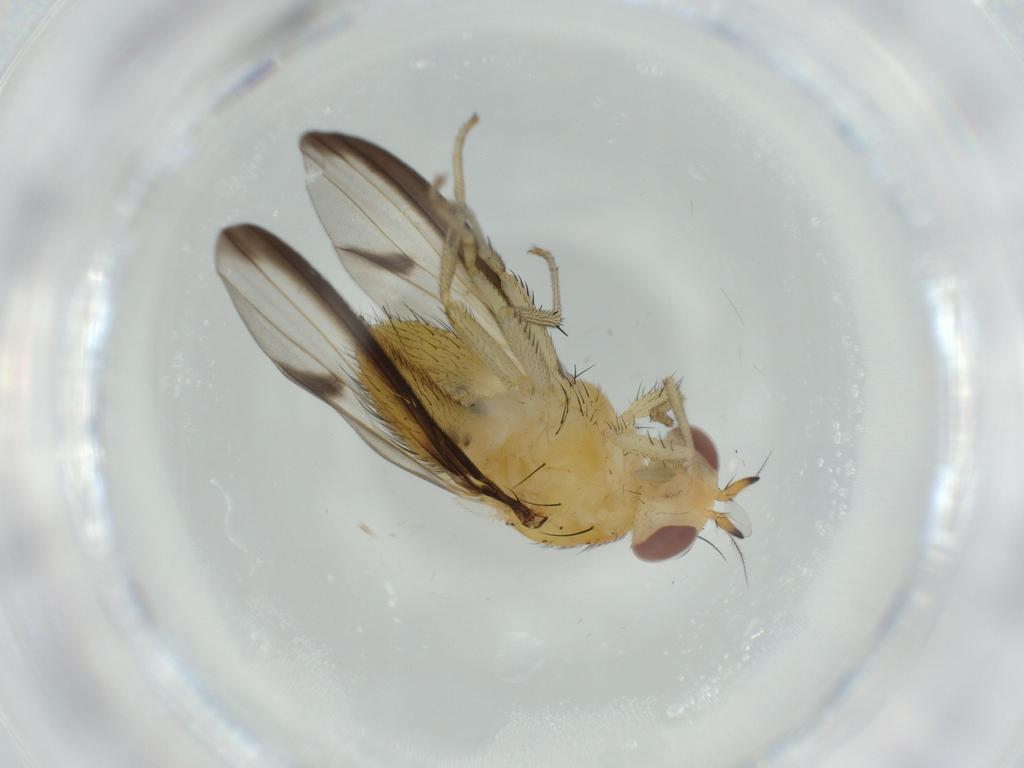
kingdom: Animalia
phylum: Arthropoda
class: Insecta
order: Diptera
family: Lauxaniidae
